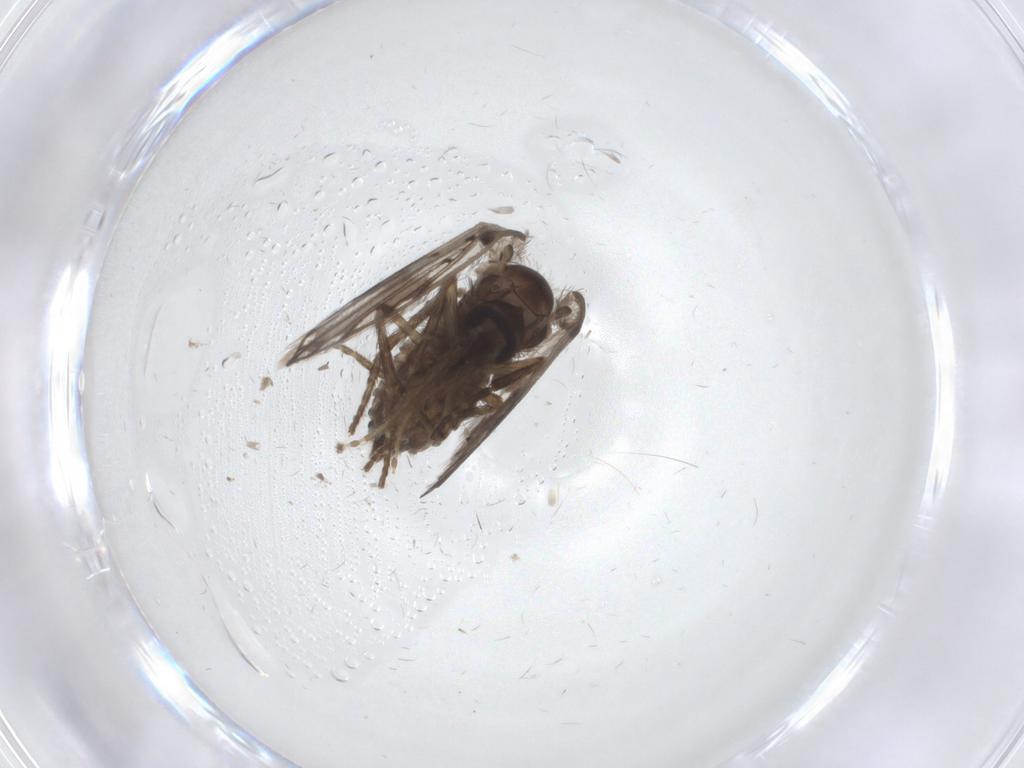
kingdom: Animalia
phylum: Arthropoda
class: Insecta
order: Diptera
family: Psychodidae
